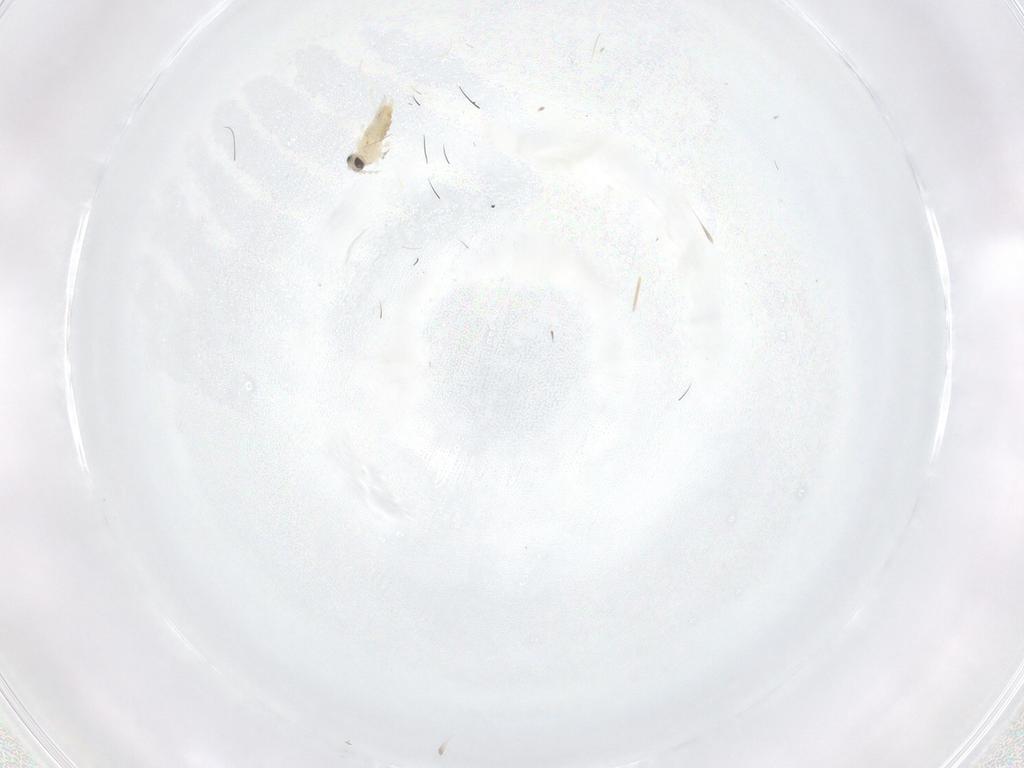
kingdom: Animalia
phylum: Arthropoda
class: Insecta
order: Diptera
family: Cecidomyiidae
